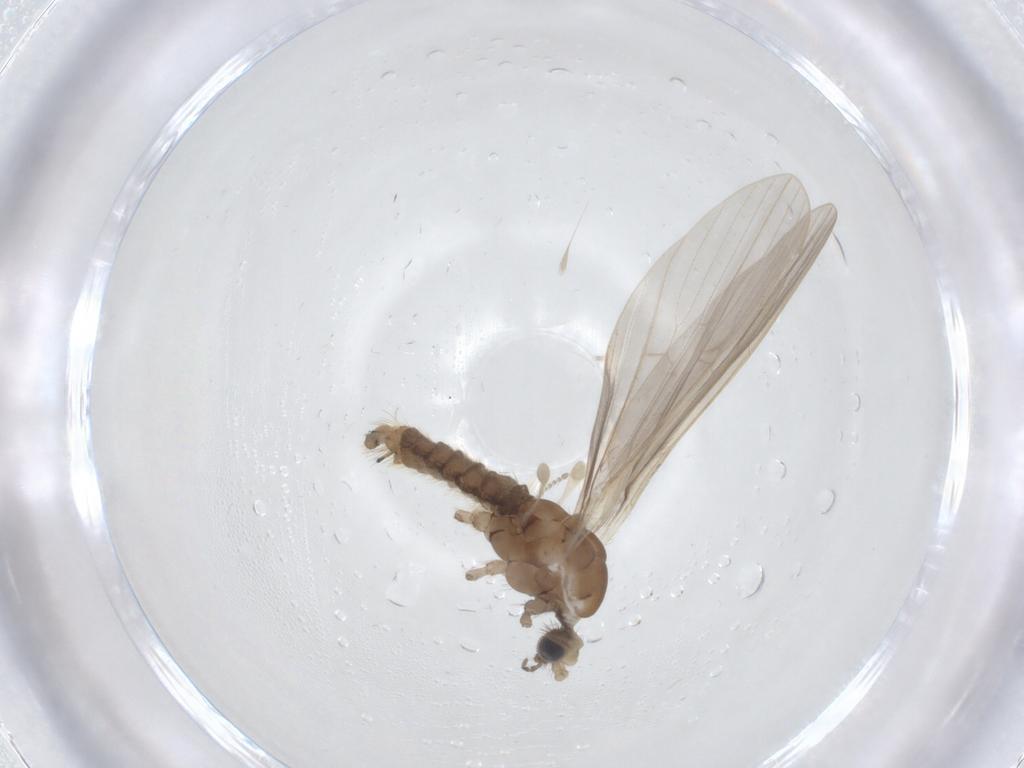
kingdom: Animalia
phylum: Arthropoda
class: Insecta
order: Diptera
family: Limoniidae
